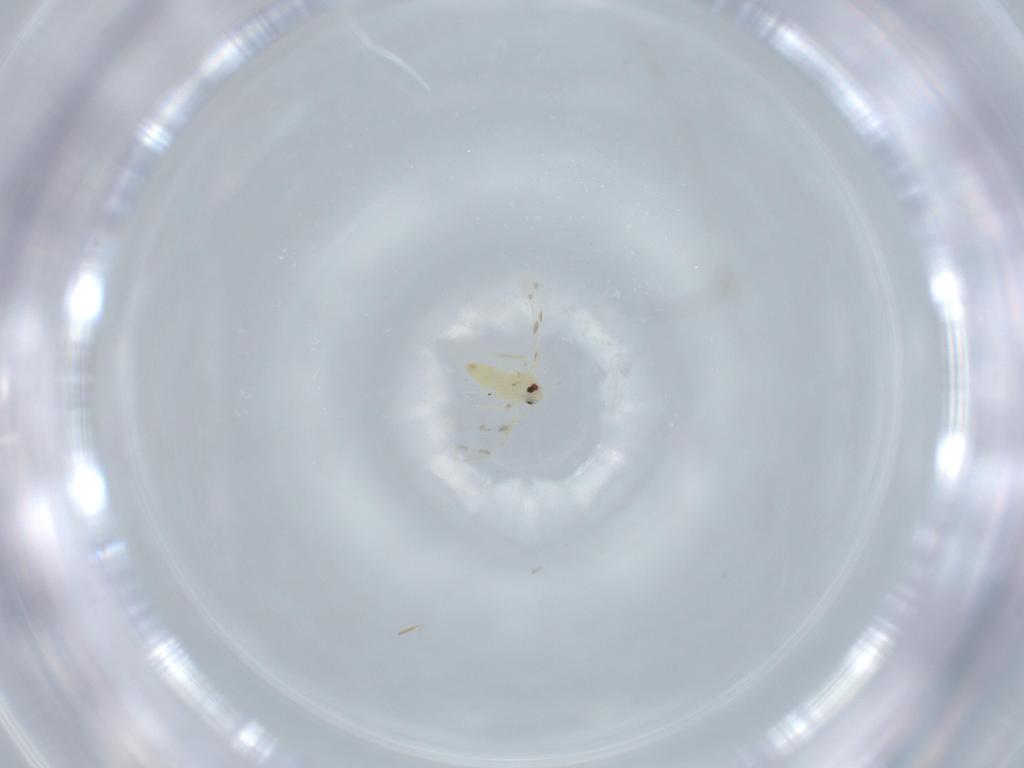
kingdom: Animalia
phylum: Arthropoda
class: Insecta
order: Hemiptera
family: Aleyrodidae
